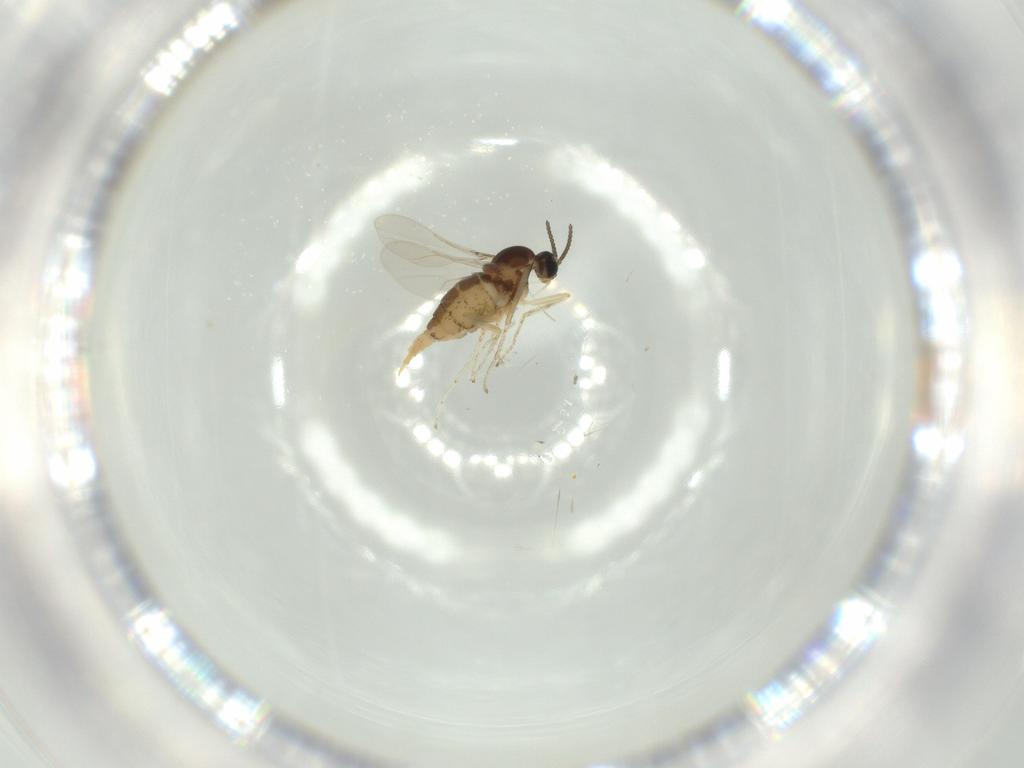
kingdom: Animalia
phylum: Arthropoda
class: Insecta
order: Diptera
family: Cecidomyiidae
